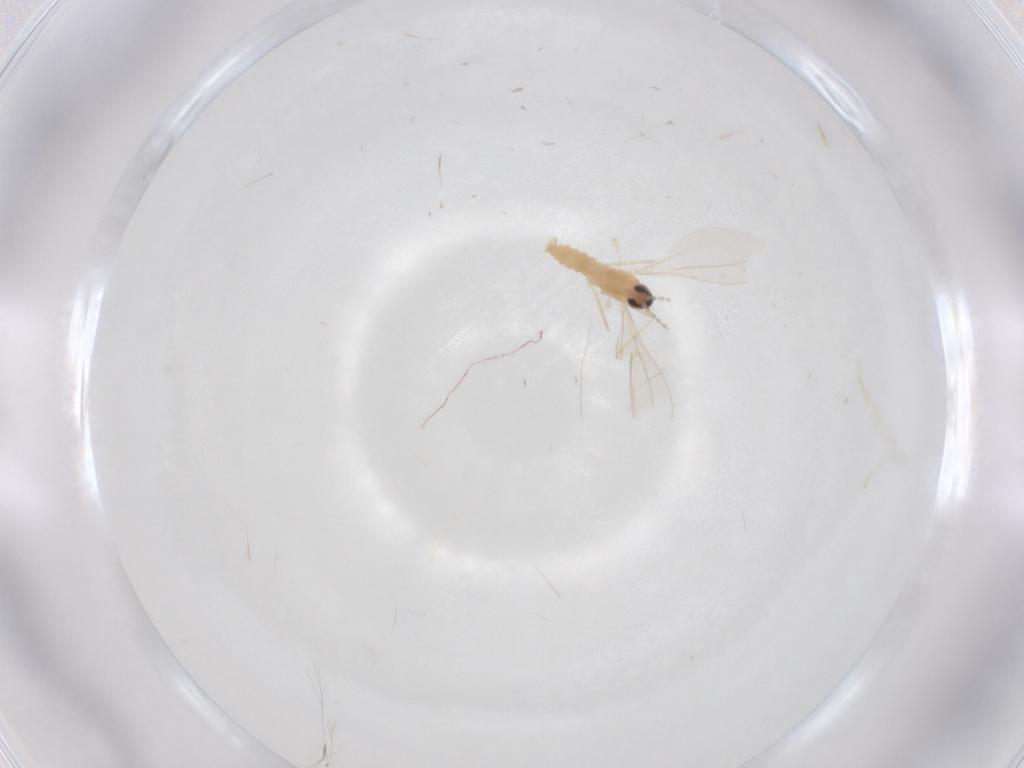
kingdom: Animalia
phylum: Arthropoda
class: Insecta
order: Diptera
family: Cecidomyiidae
